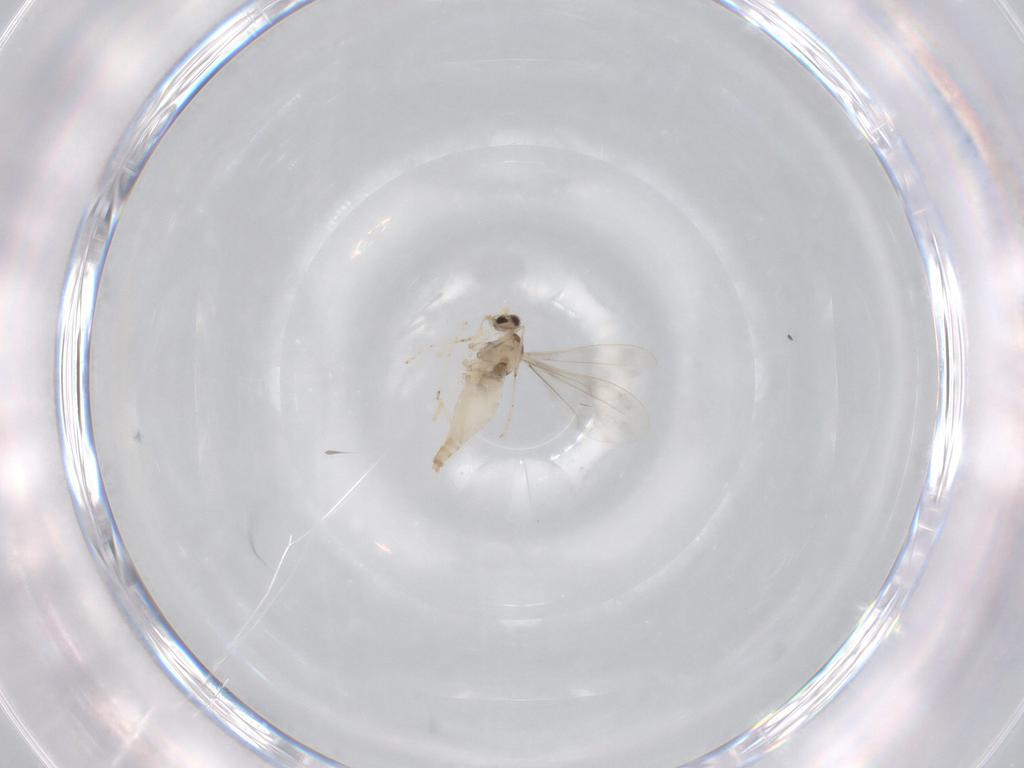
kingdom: Animalia
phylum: Arthropoda
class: Insecta
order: Diptera
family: Cecidomyiidae
